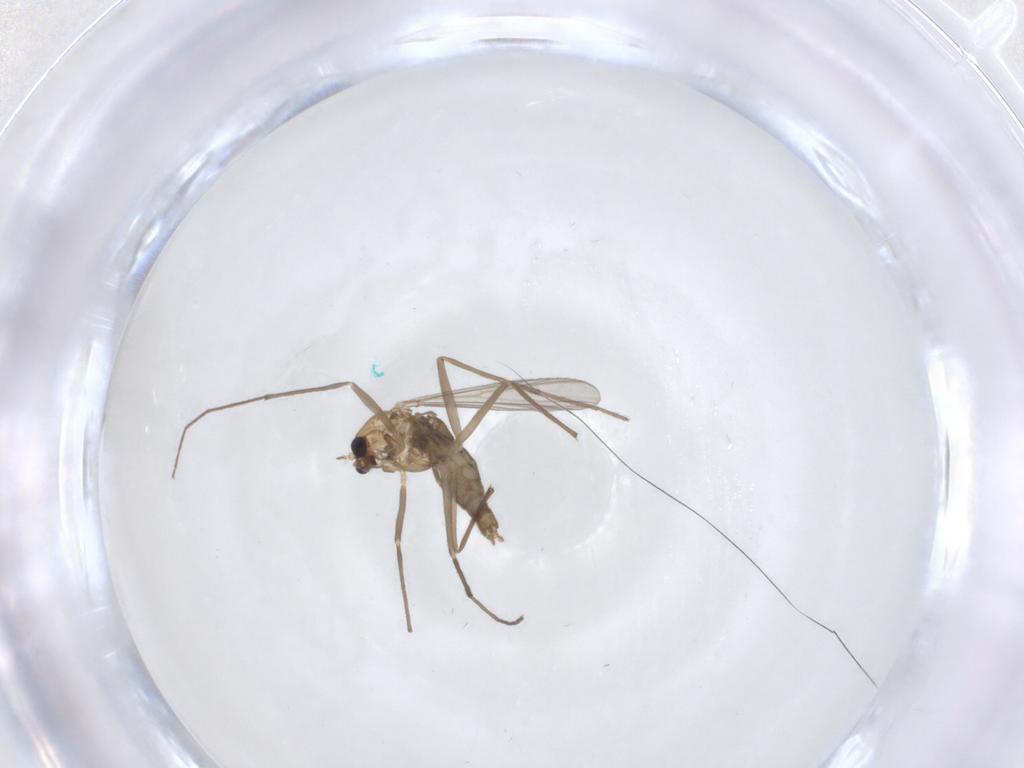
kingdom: Animalia
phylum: Arthropoda
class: Insecta
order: Diptera
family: Chironomidae
